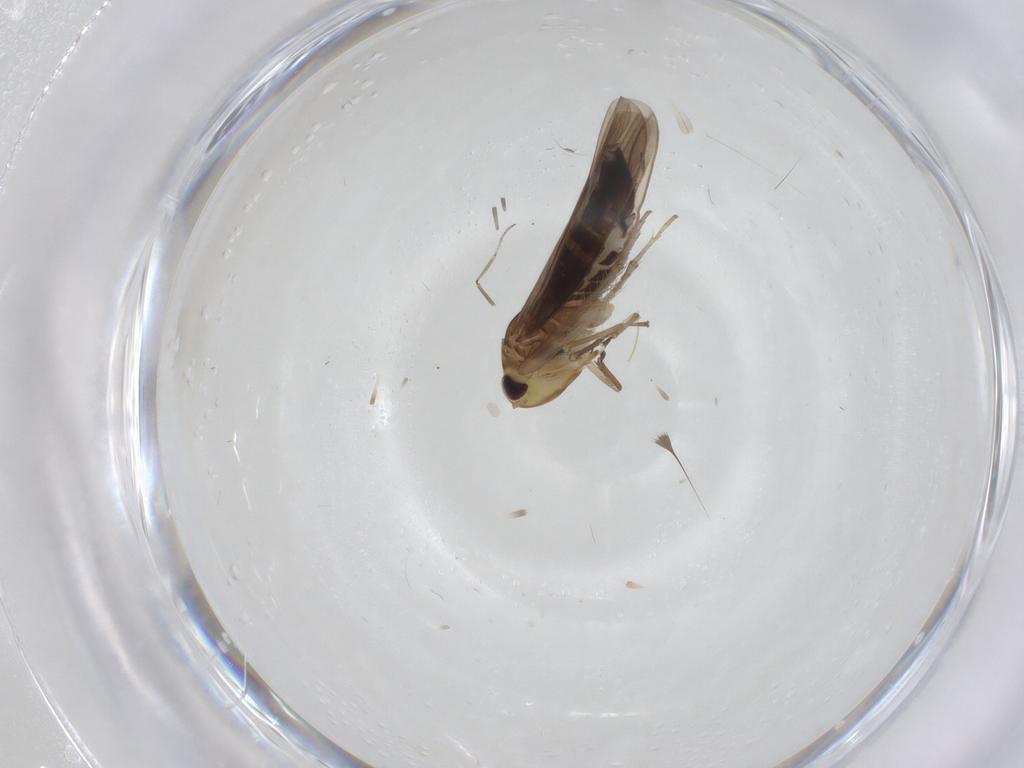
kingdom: Animalia
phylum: Arthropoda
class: Insecta
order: Hemiptera
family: Cicadellidae
